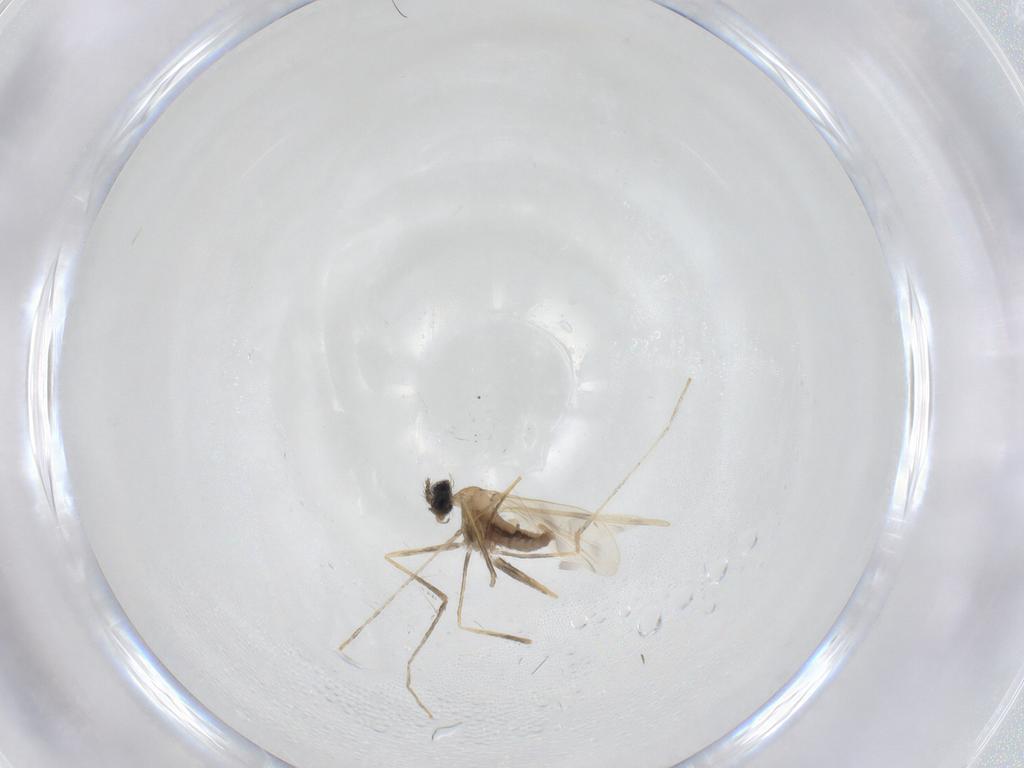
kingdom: Animalia
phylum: Arthropoda
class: Insecta
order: Diptera
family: Cecidomyiidae
